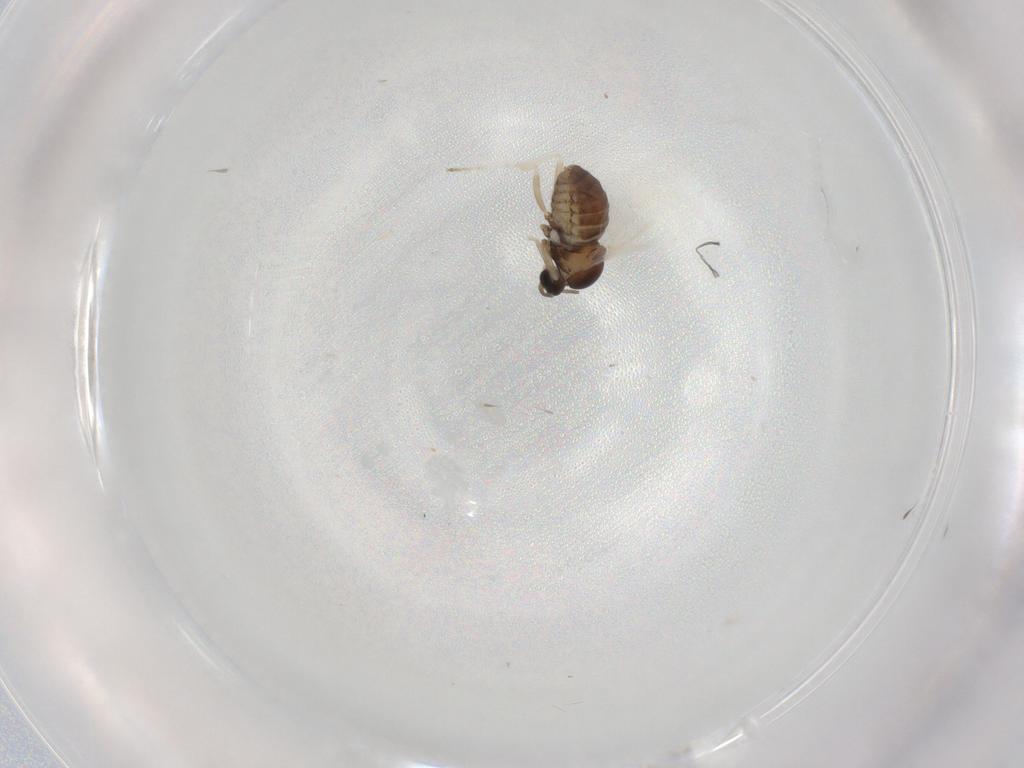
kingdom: Animalia
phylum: Arthropoda
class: Insecta
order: Diptera
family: Cecidomyiidae
